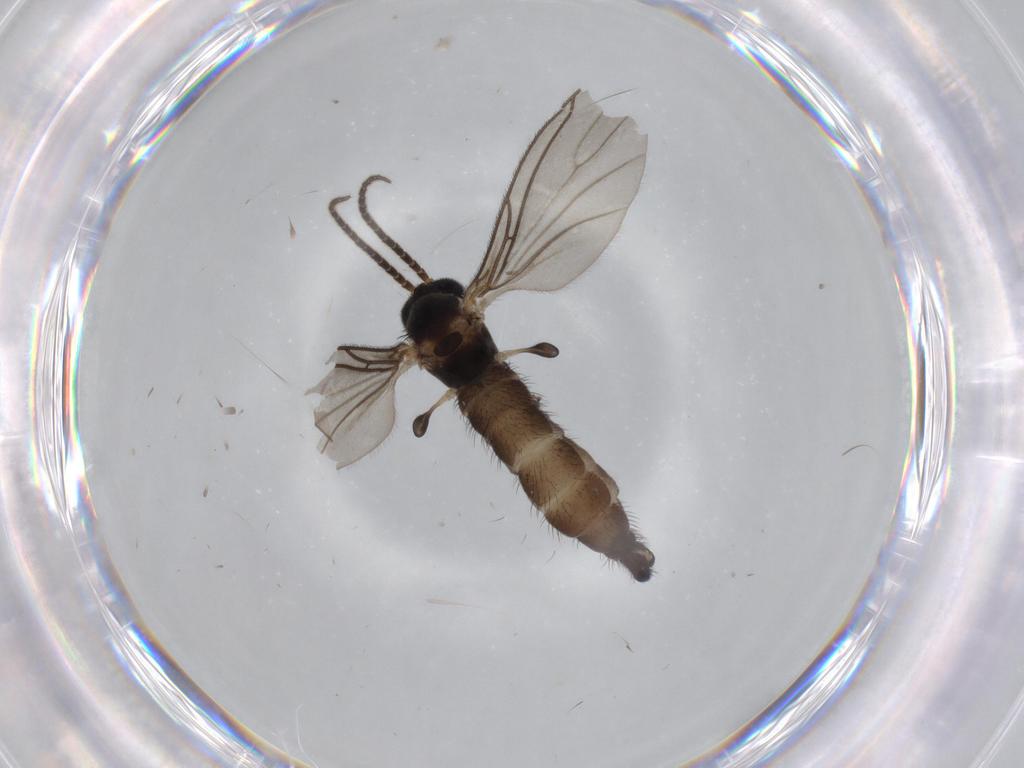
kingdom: Animalia
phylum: Arthropoda
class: Insecta
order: Diptera
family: Sciaridae
